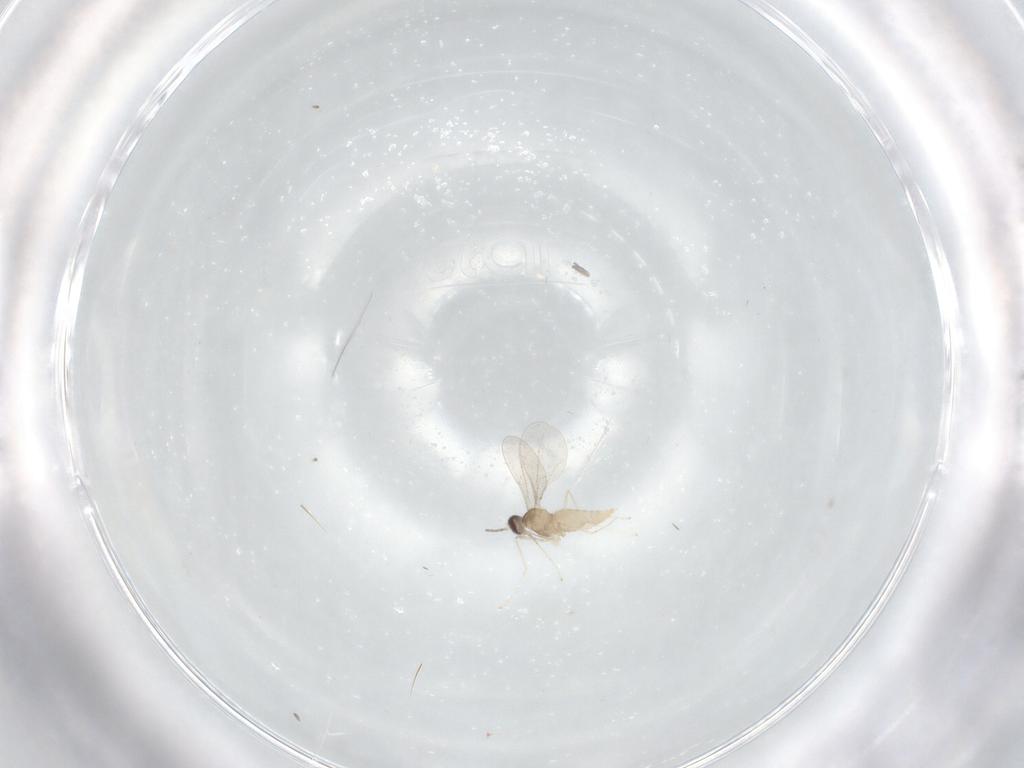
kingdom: Animalia
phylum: Arthropoda
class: Insecta
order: Diptera
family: Cecidomyiidae
